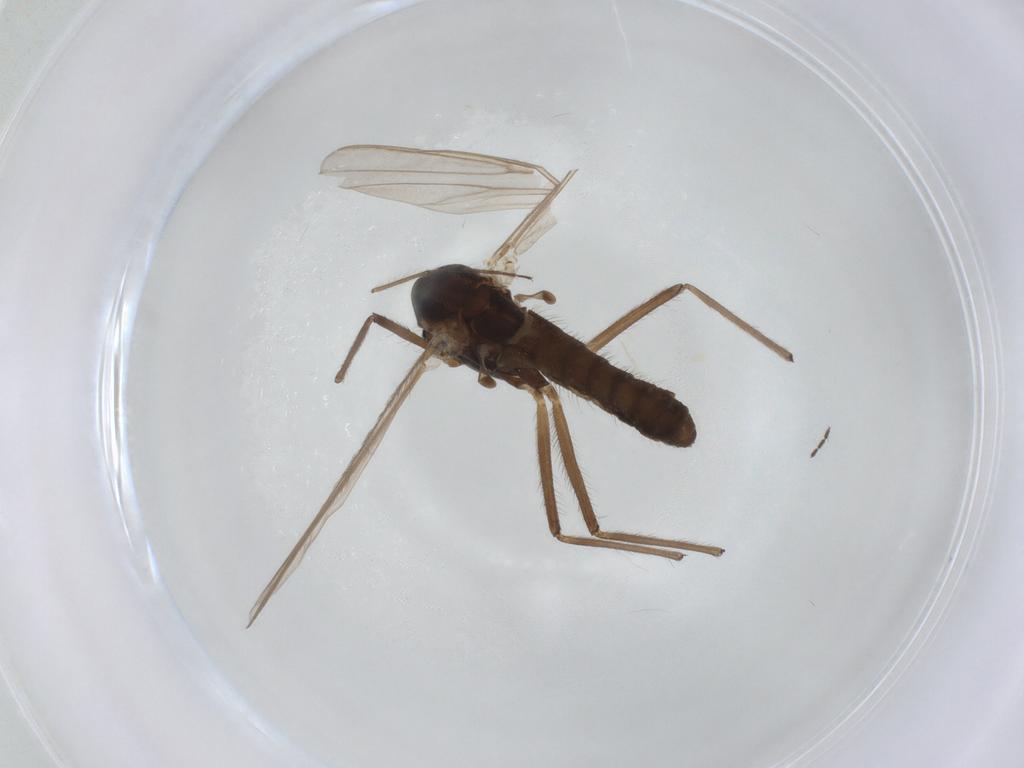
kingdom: Animalia
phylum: Arthropoda
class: Insecta
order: Diptera
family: Chironomidae
